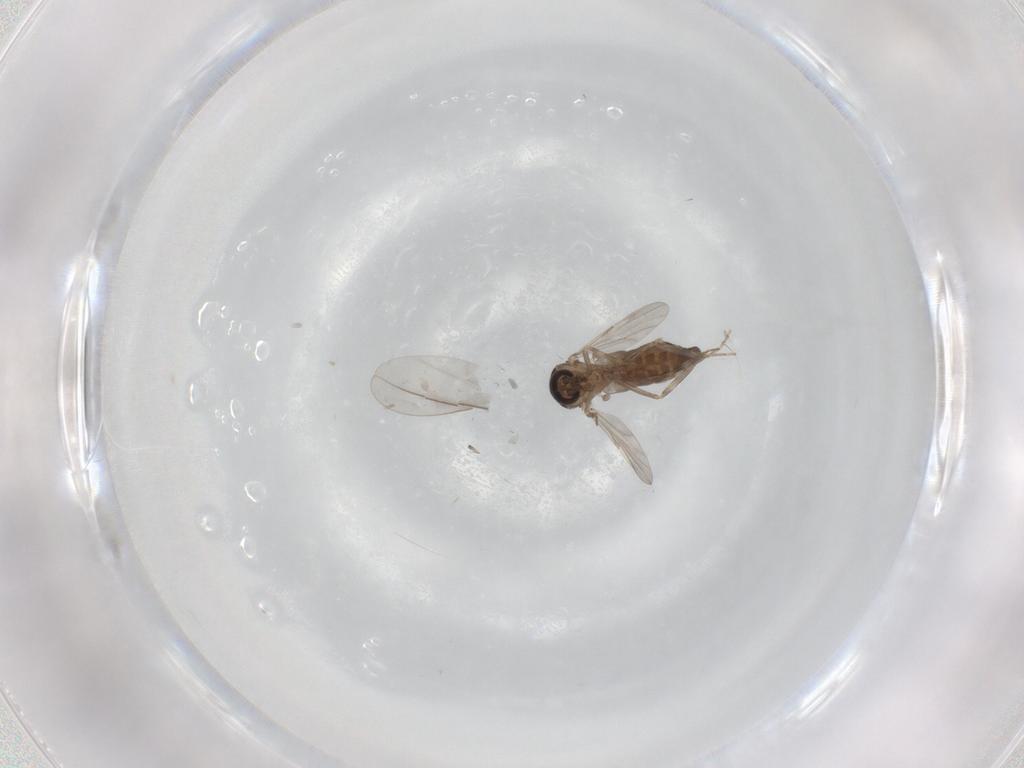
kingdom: Animalia
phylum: Arthropoda
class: Insecta
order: Diptera
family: Ceratopogonidae
